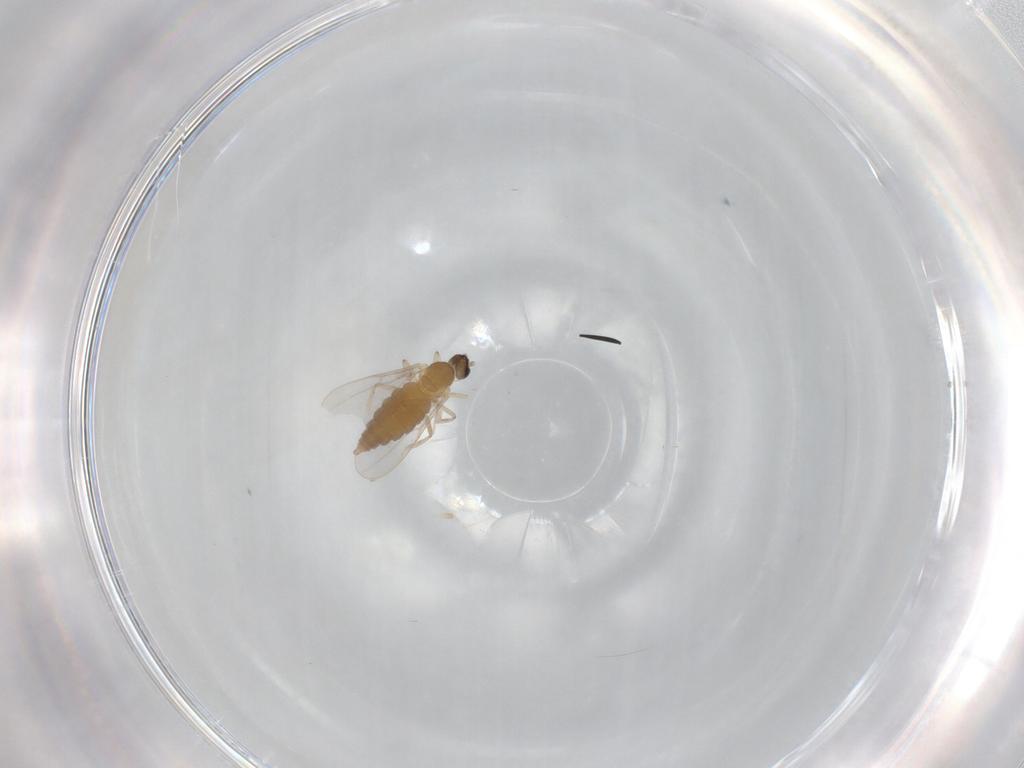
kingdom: Animalia
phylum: Arthropoda
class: Insecta
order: Diptera
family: Cecidomyiidae
